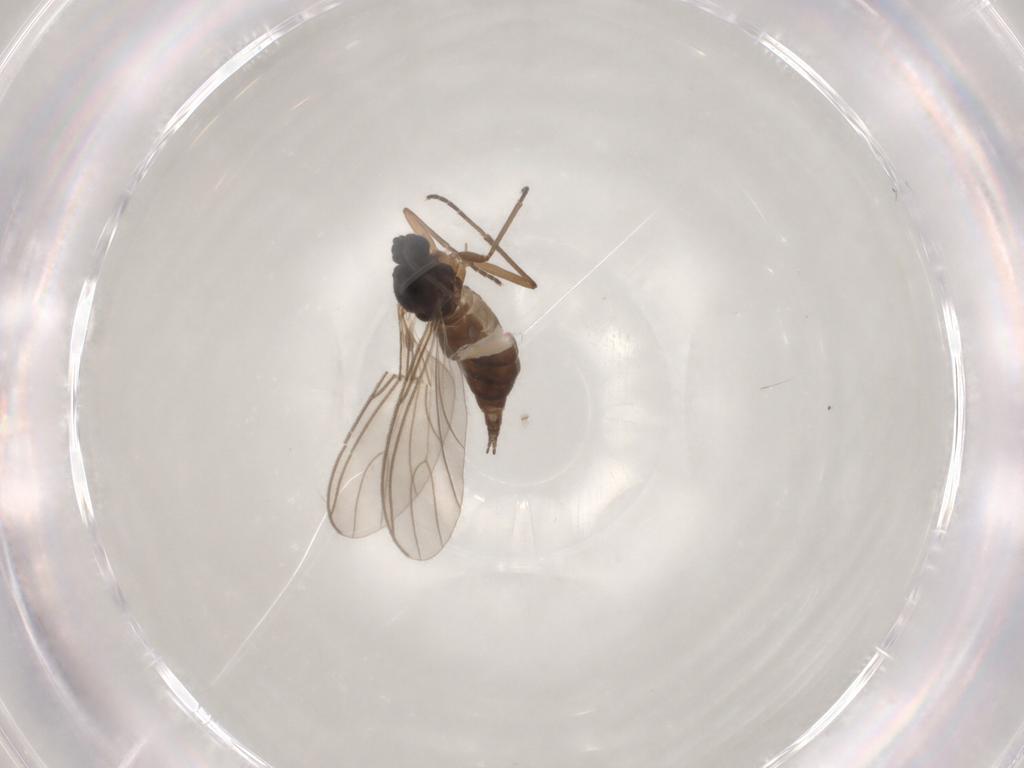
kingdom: Animalia
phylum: Arthropoda
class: Insecta
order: Diptera
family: Sciaridae
